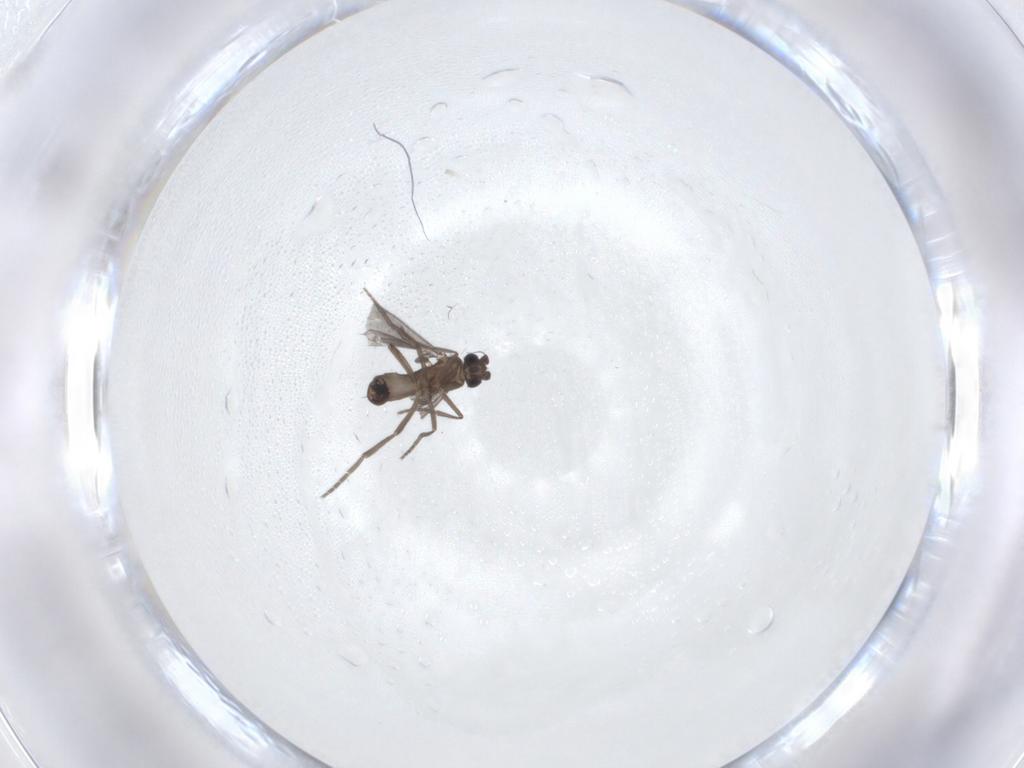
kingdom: Animalia
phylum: Arthropoda
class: Insecta
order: Diptera
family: Phoridae
